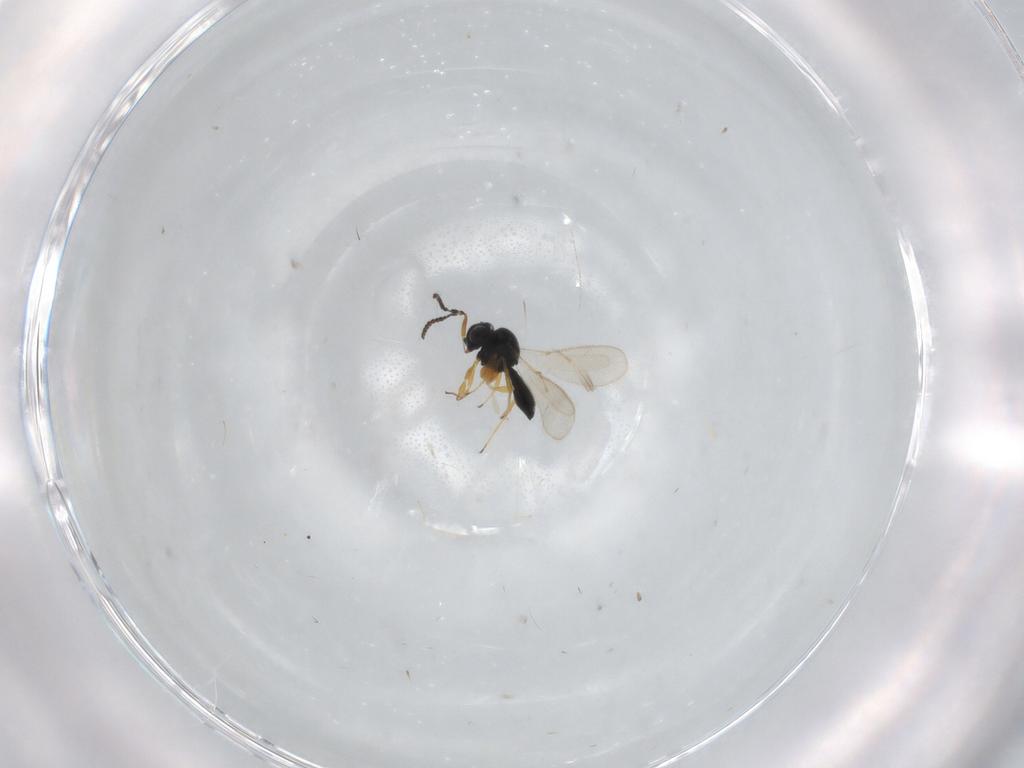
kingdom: Animalia
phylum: Arthropoda
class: Insecta
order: Hymenoptera
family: Scelionidae
